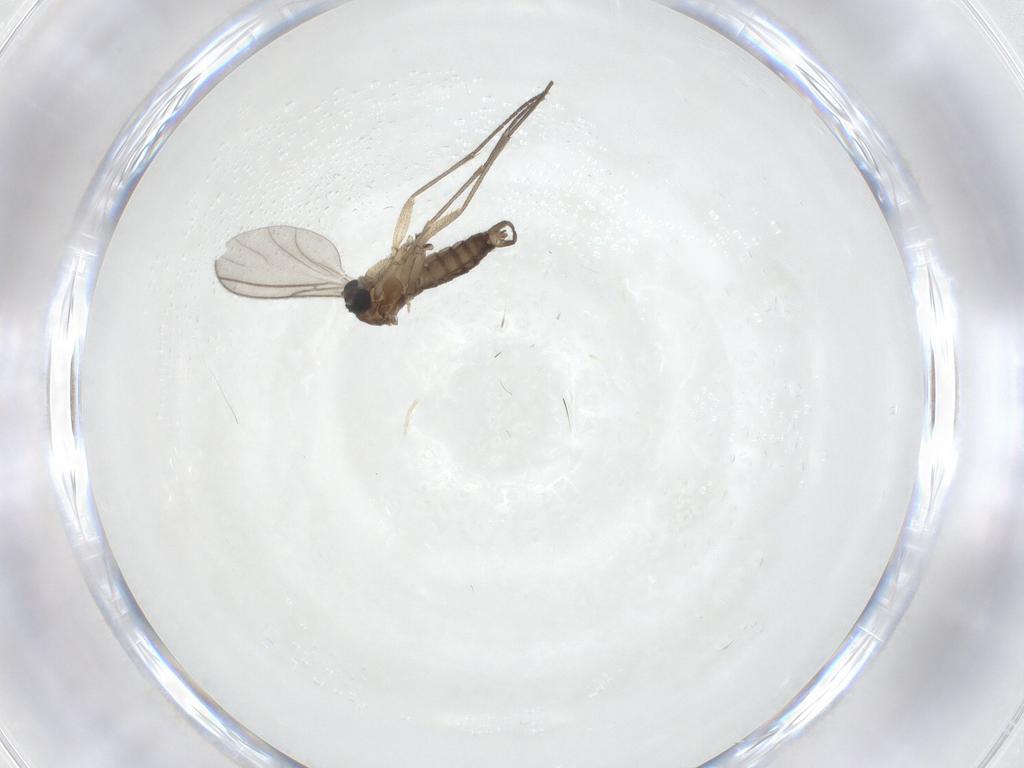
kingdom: Animalia
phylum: Arthropoda
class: Insecta
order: Diptera
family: Sciaridae
